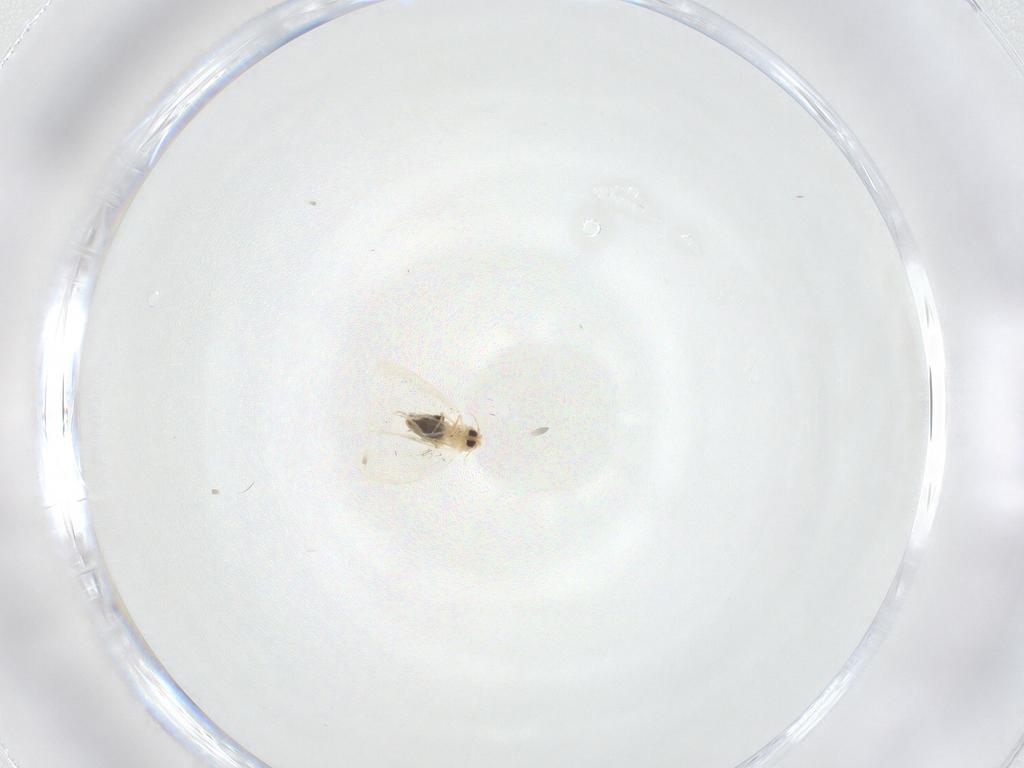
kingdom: Animalia
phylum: Arthropoda
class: Insecta
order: Hemiptera
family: Aleyrodidae
